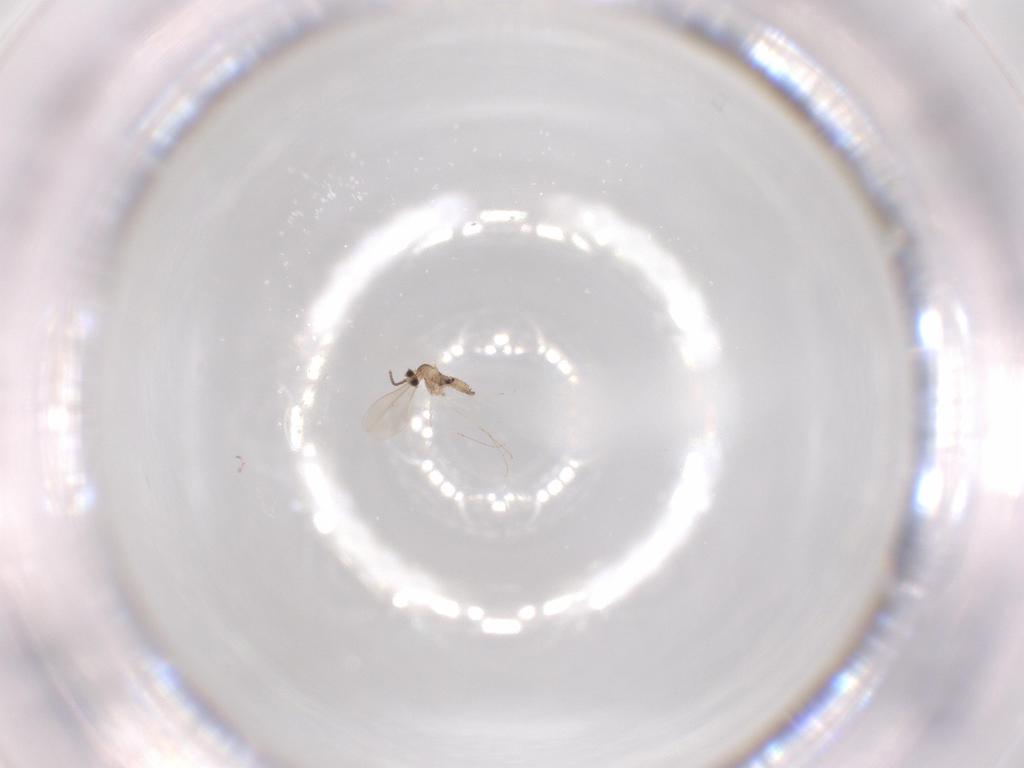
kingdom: Animalia
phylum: Arthropoda
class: Insecta
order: Diptera
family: Cecidomyiidae
